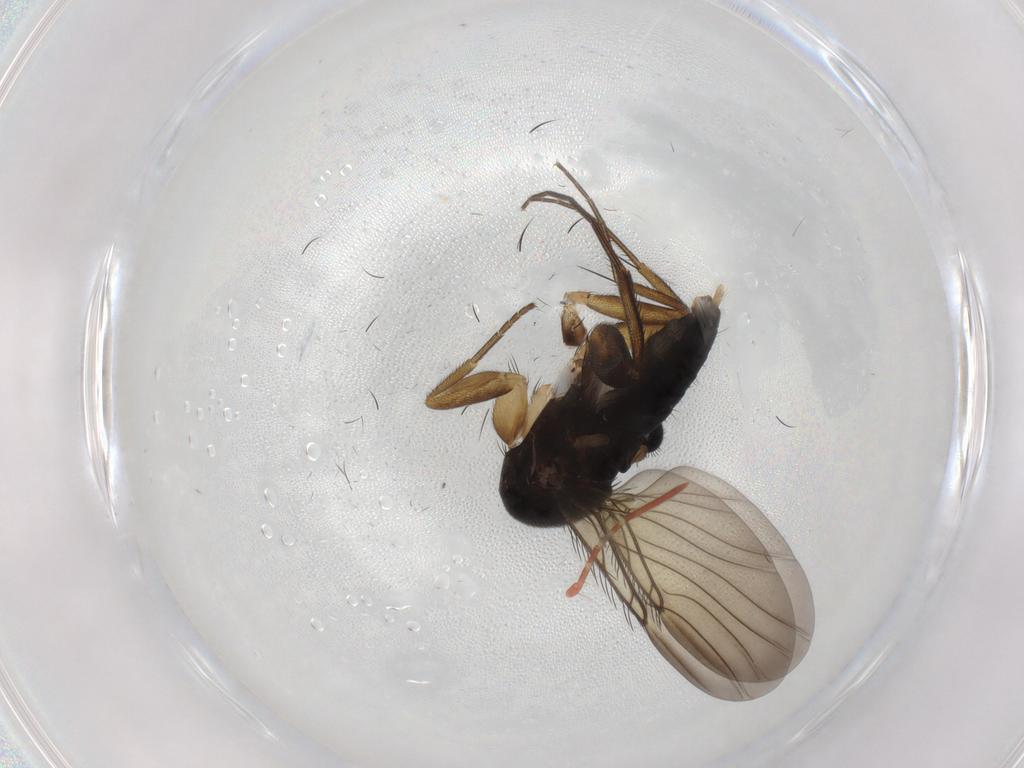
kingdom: Animalia
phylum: Arthropoda
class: Insecta
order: Diptera
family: Phoridae
